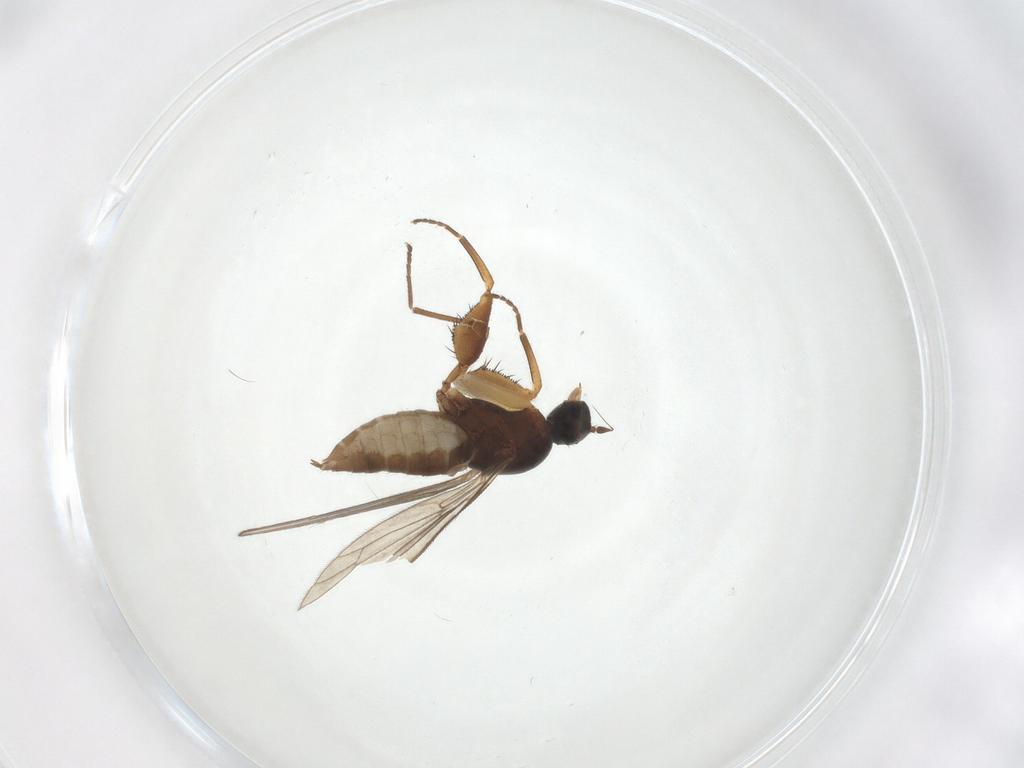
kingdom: Animalia
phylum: Arthropoda
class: Insecta
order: Diptera
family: Empididae
